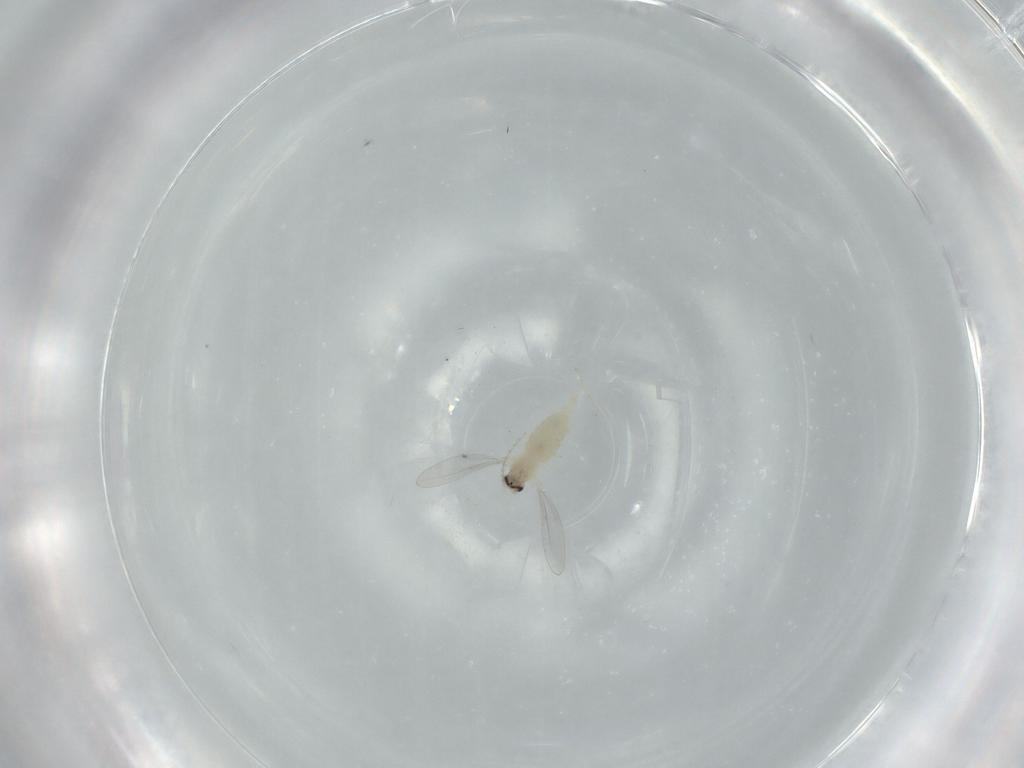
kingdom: Animalia
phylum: Arthropoda
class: Insecta
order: Diptera
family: Cecidomyiidae
